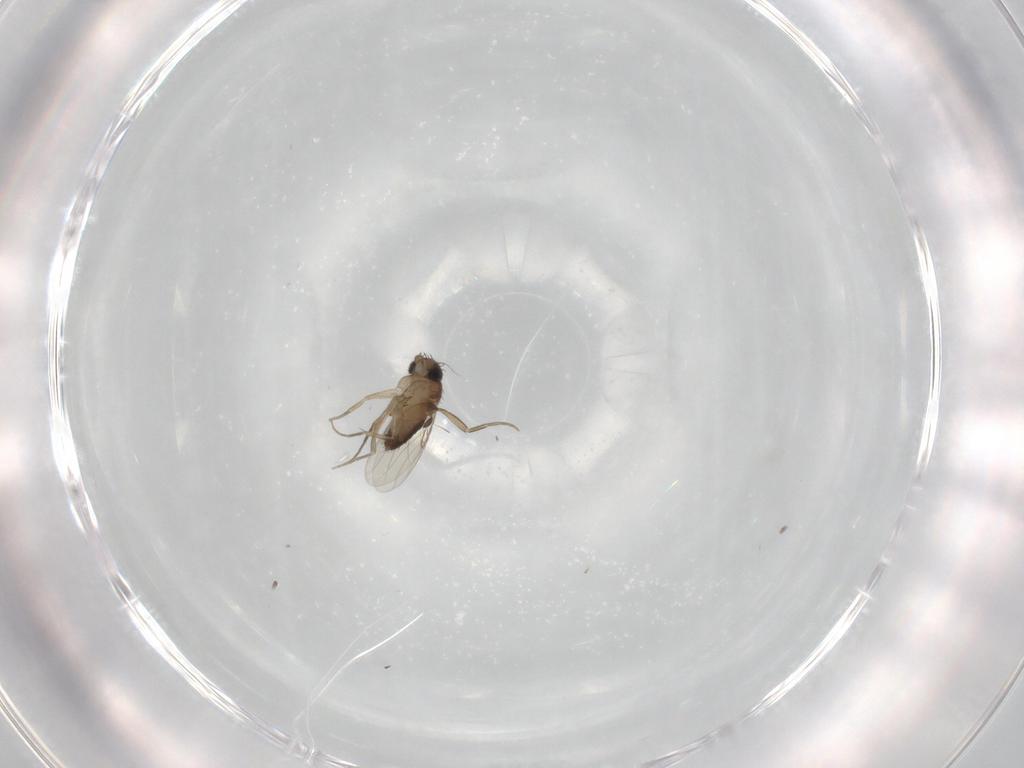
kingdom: Animalia
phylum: Arthropoda
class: Insecta
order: Diptera
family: Phoridae
